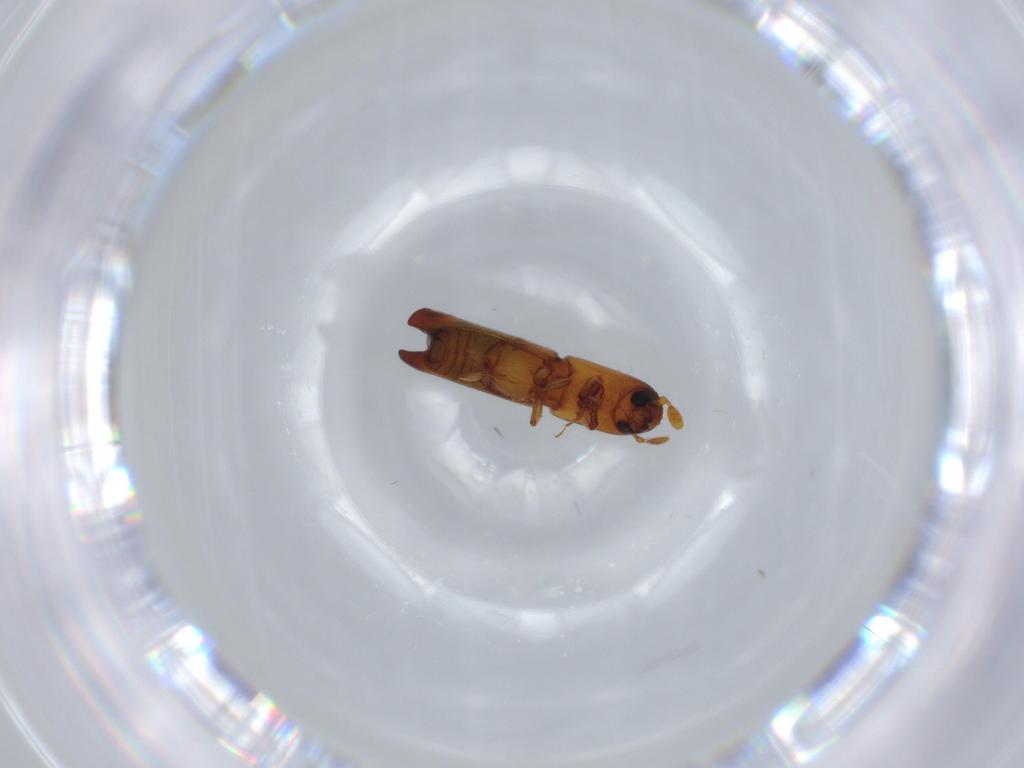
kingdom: Animalia
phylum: Arthropoda
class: Insecta
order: Coleoptera
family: Curculionidae
